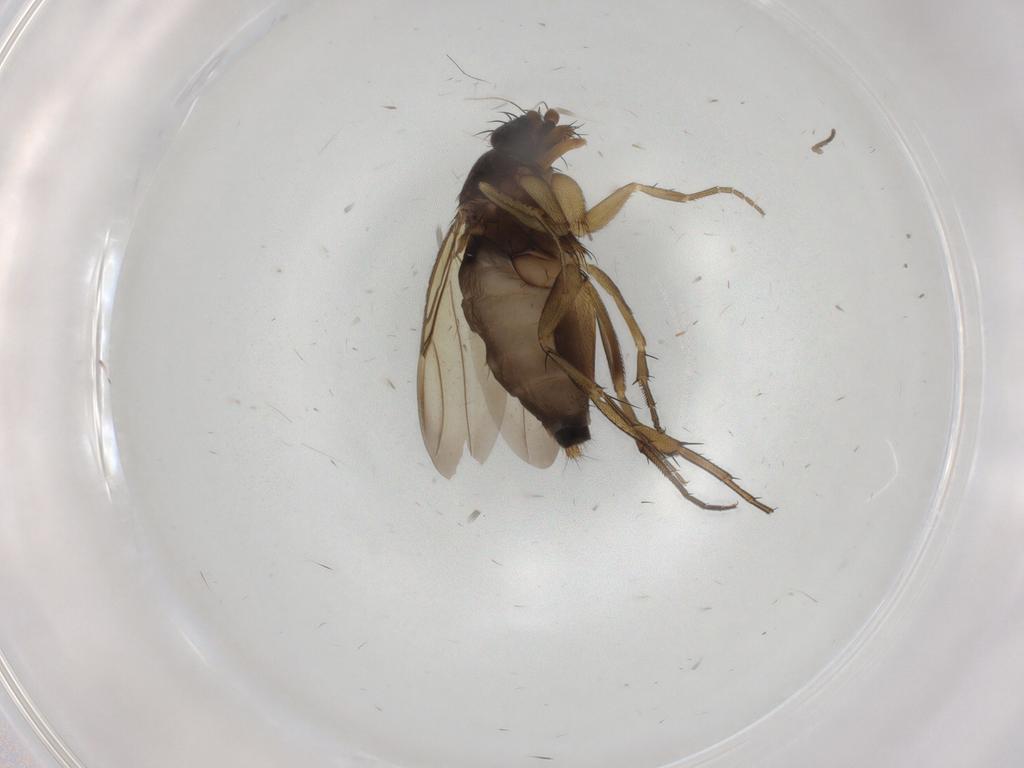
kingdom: Animalia
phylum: Arthropoda
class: Insecta
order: Diptera
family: Psychodidae
